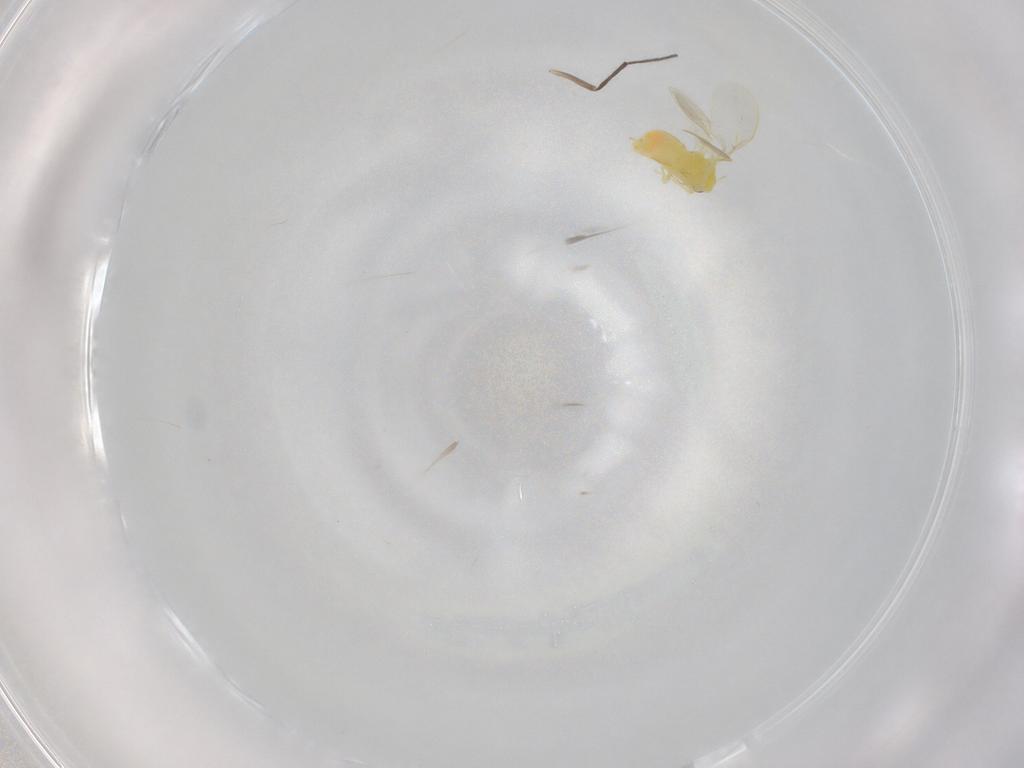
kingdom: Animalia
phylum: Arthropoda
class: Insecta
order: Hemiptera
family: Aleyrodidae
